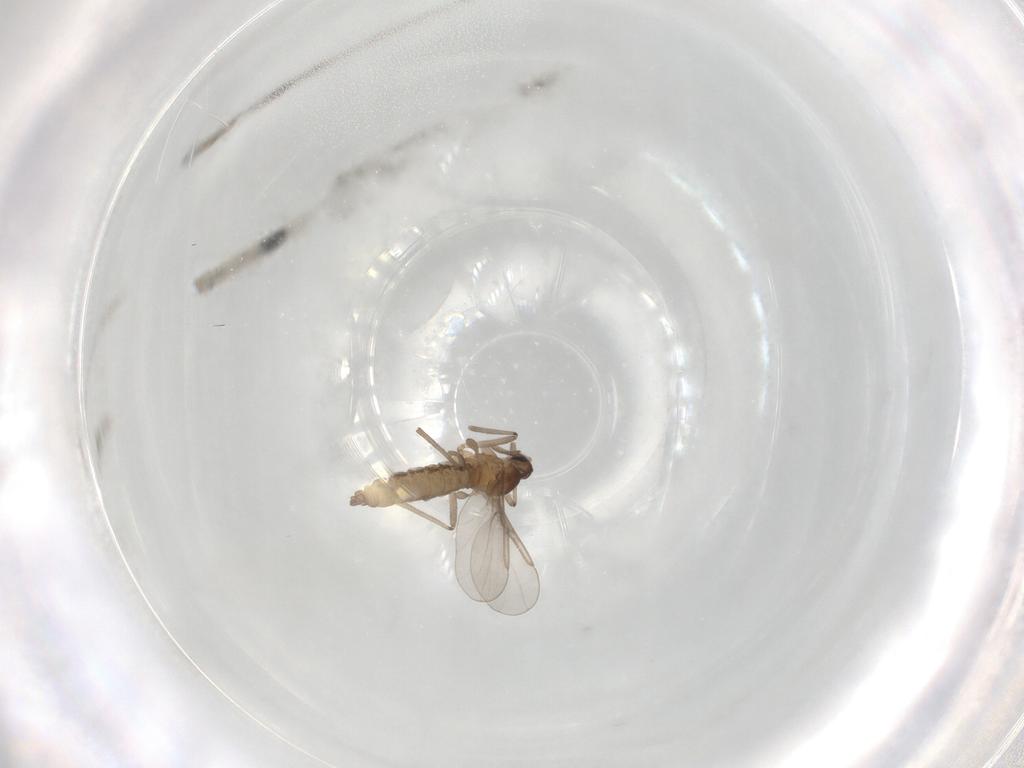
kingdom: Animalia
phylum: Arthropoda
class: Insecta
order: Diptera
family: Cecidomyiidae
